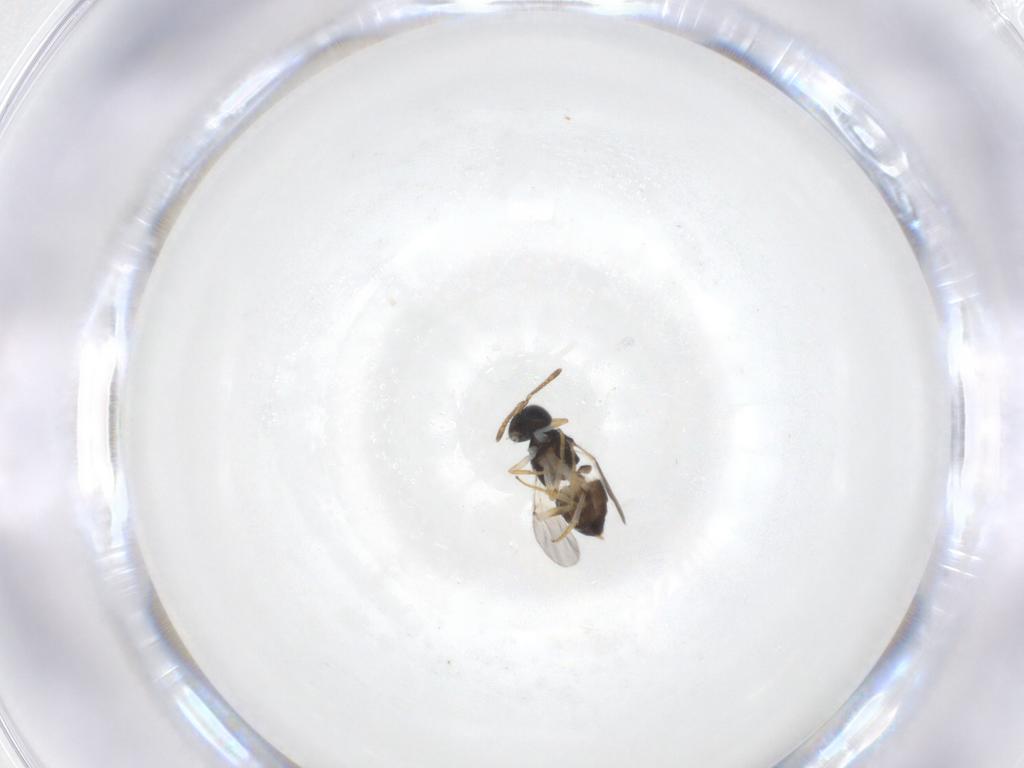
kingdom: Animalia
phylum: Arthropoda
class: Insecta
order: Hymenoptera
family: Encyrtidae
